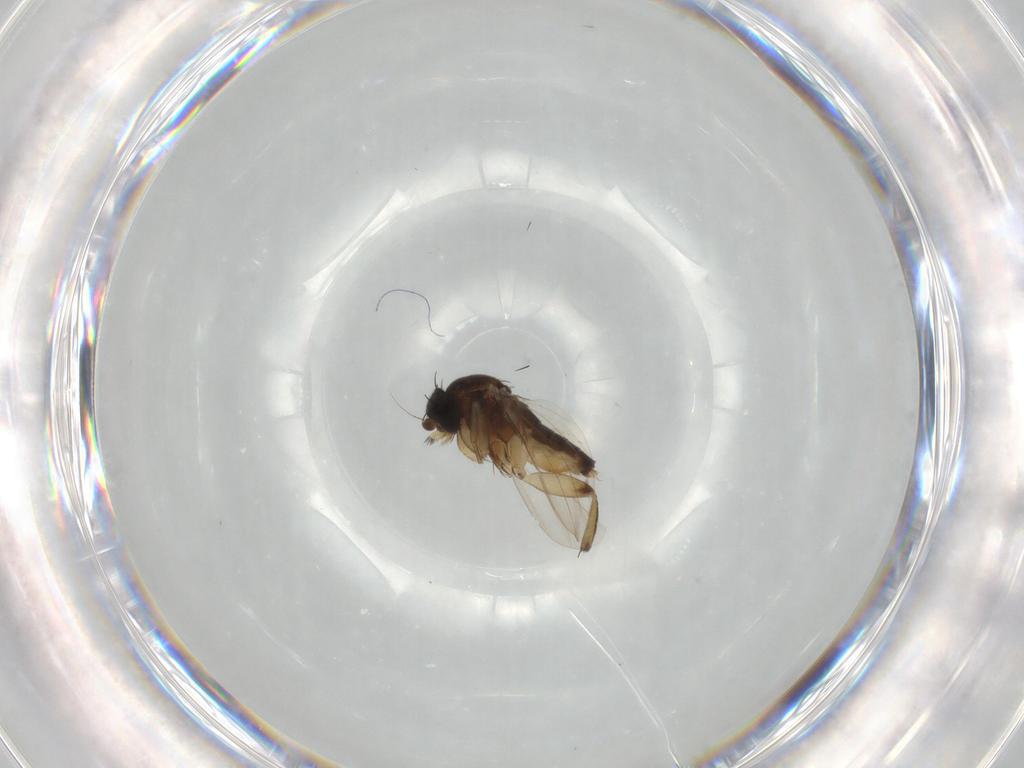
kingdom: Animalia
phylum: Arthropoda
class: Insecta
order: Diptera
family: Phoridae
